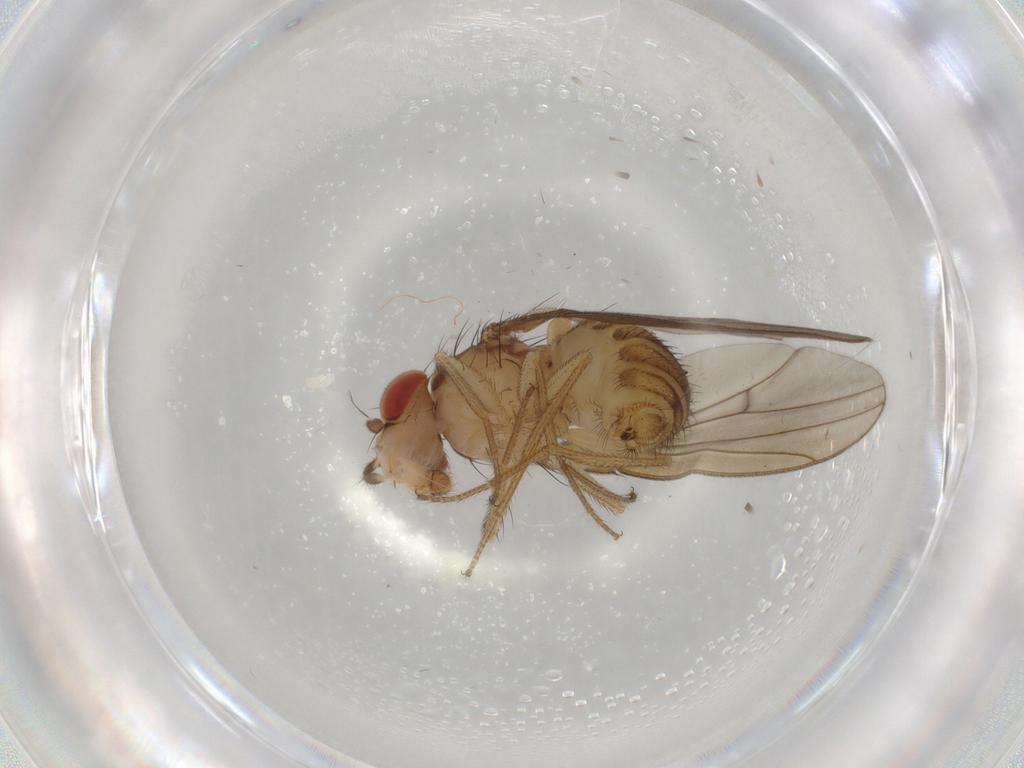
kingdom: Animalia
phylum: Arthropoda
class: Insecta
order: Diptera
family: Drosophilidae
